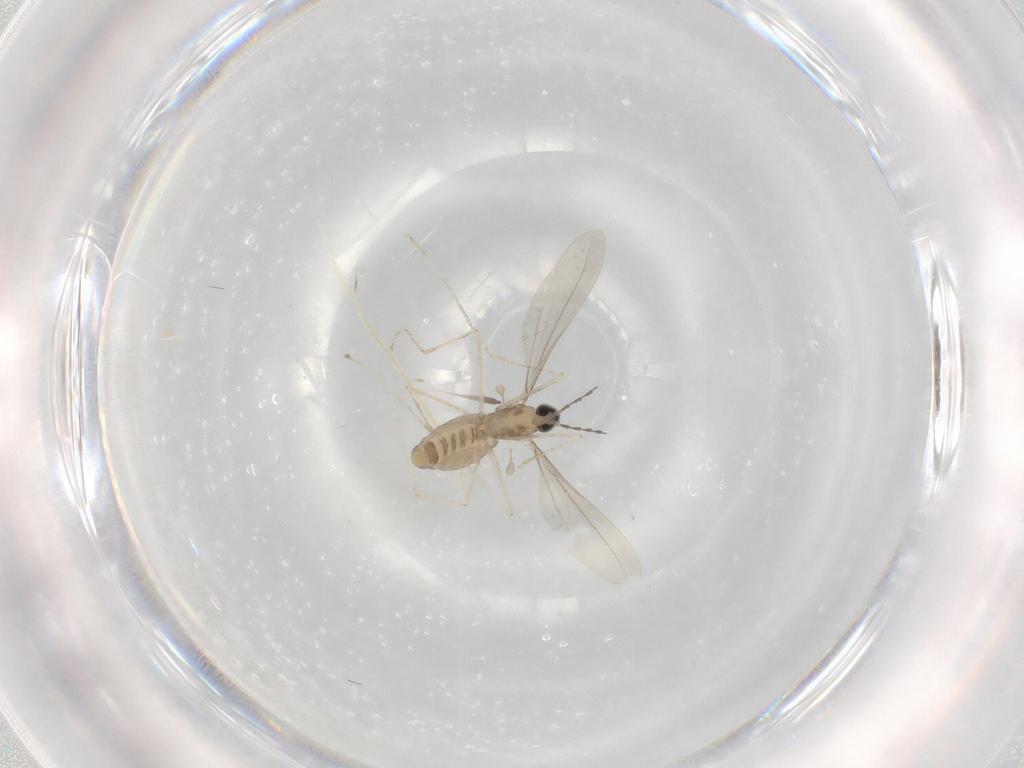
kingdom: Animalia
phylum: Arthropoda
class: Insecta
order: Diptera
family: Cecidomyiidae
